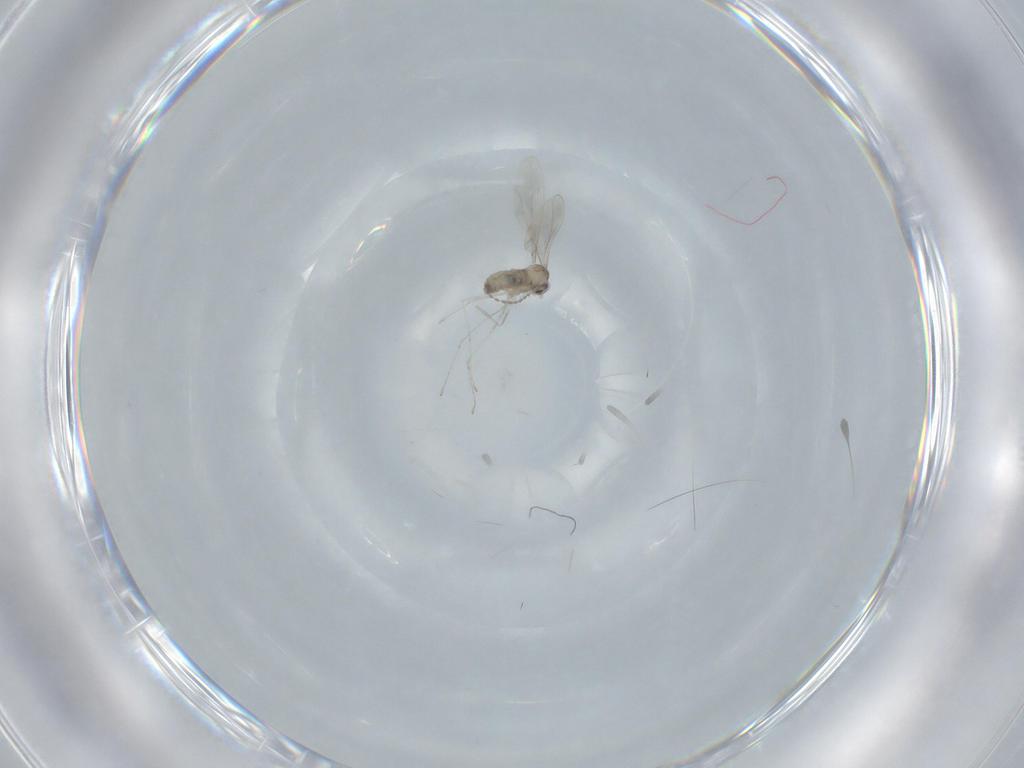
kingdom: Animalia
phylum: Arthropoda
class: Insecta
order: Diptera
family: Cecidomyiidae
